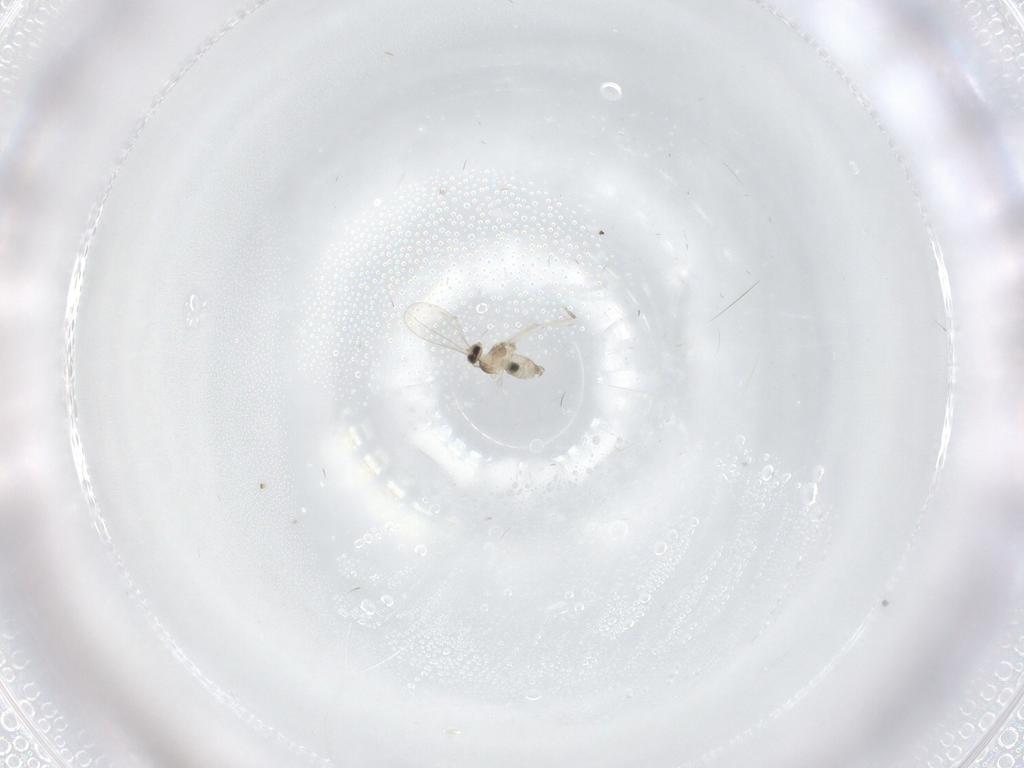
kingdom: Animalia
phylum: Arthropoda
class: Insecta
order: Diptera
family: Cecidomyiidae
